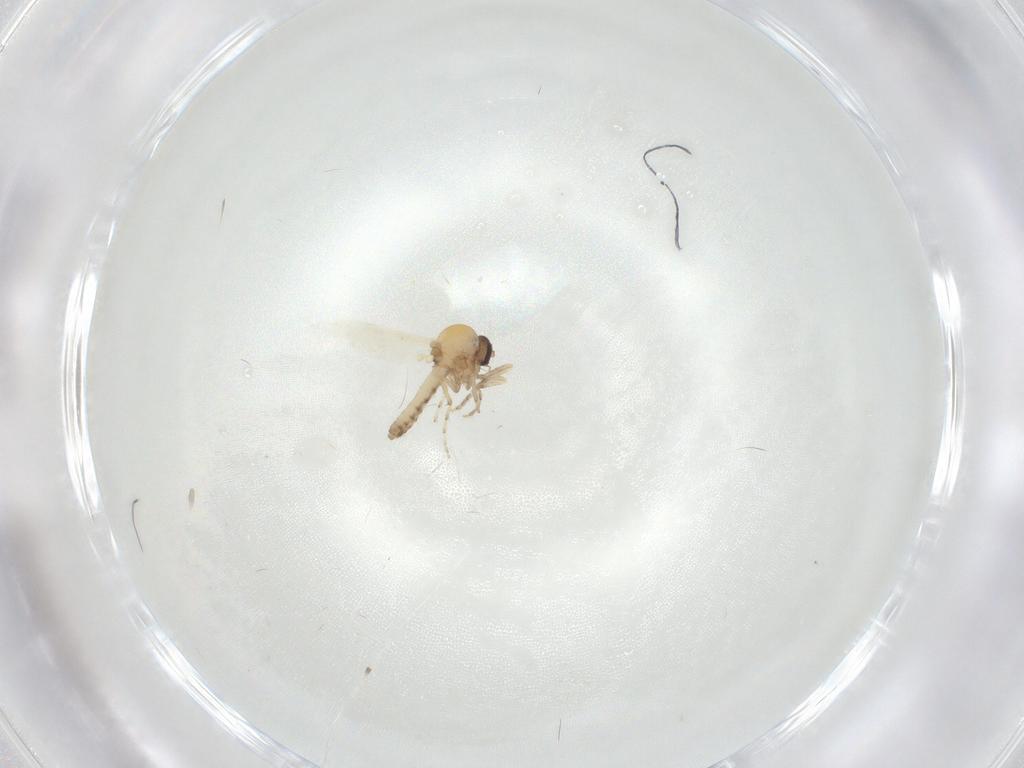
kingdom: Animalia
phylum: Arthropoda
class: Insecta
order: Diptera
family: Ceratopogonidae
